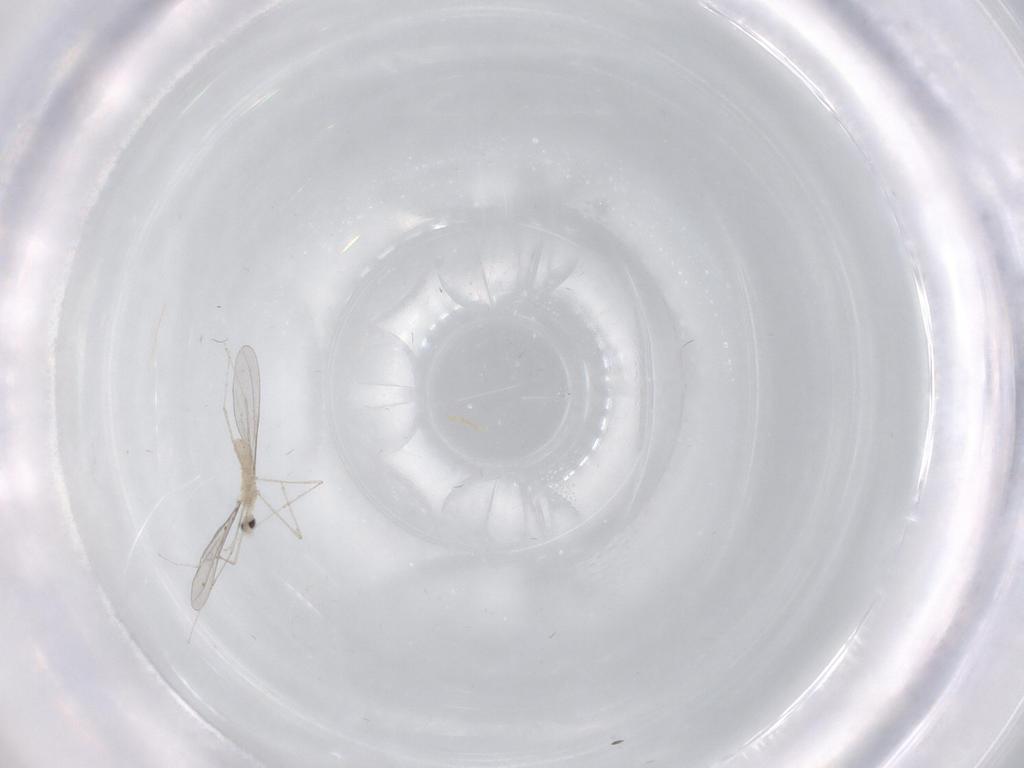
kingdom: Animalia
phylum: Arthropoda
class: Insecta
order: Diptera
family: Cecidomyiidae
